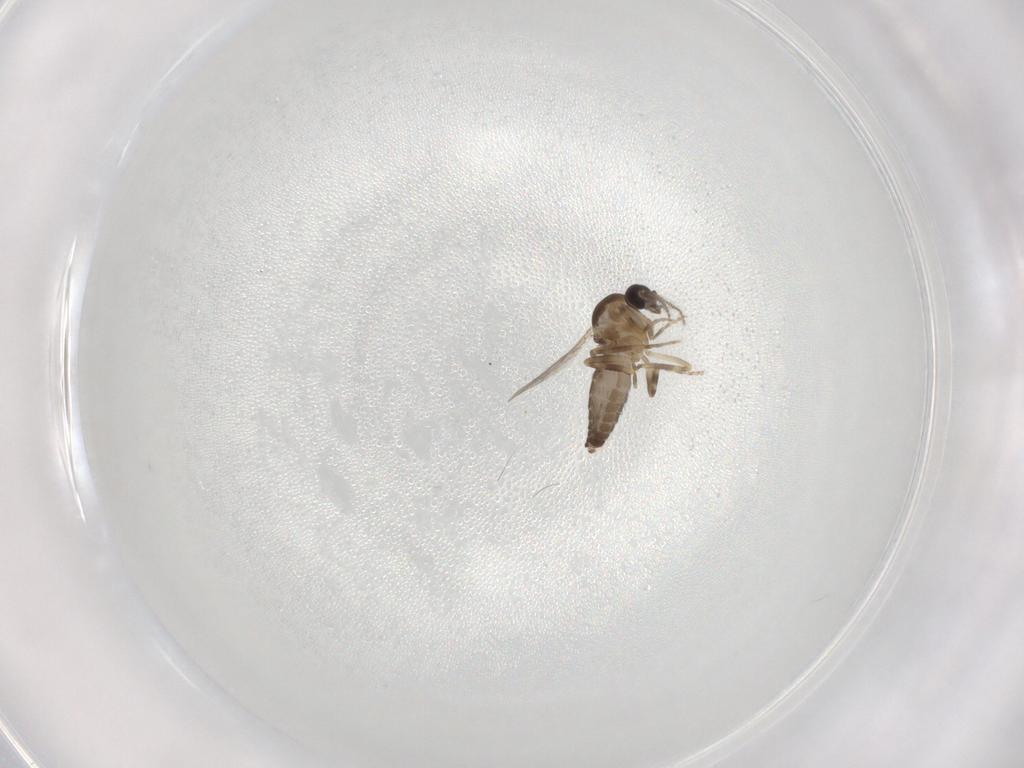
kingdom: Animalia
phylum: Arthropoda
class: Insecta
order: Diptera
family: Ceratopogonidae
